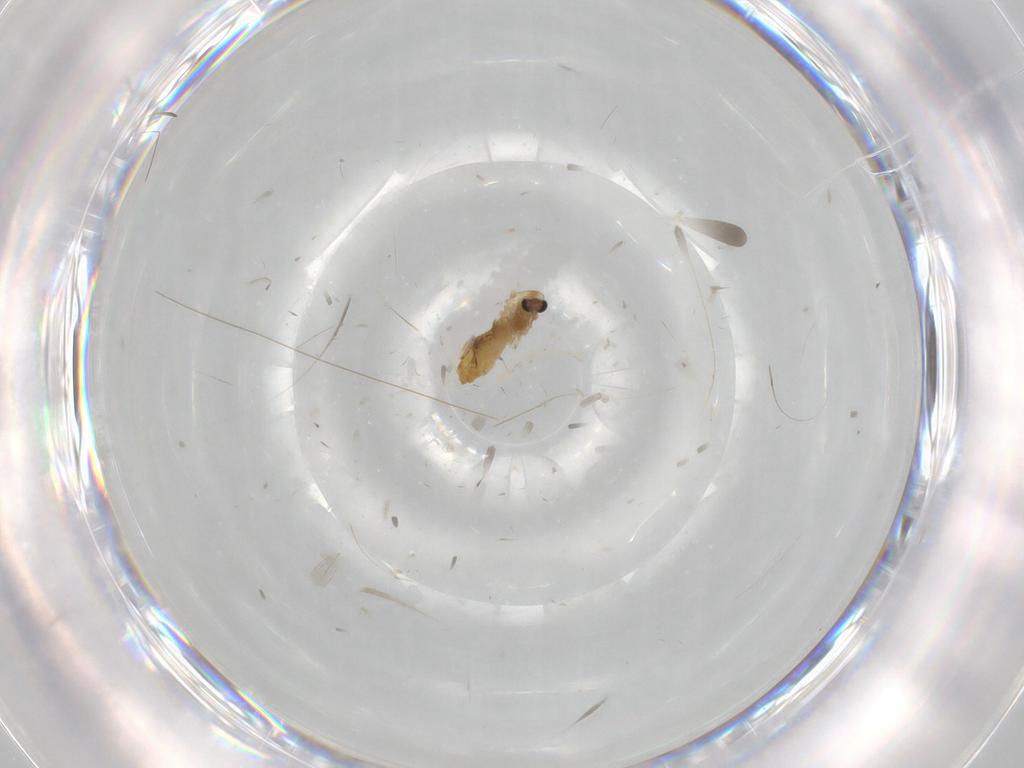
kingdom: Animalia
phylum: Arthropoda
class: Insecta
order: Diptera
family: Chironomidae
